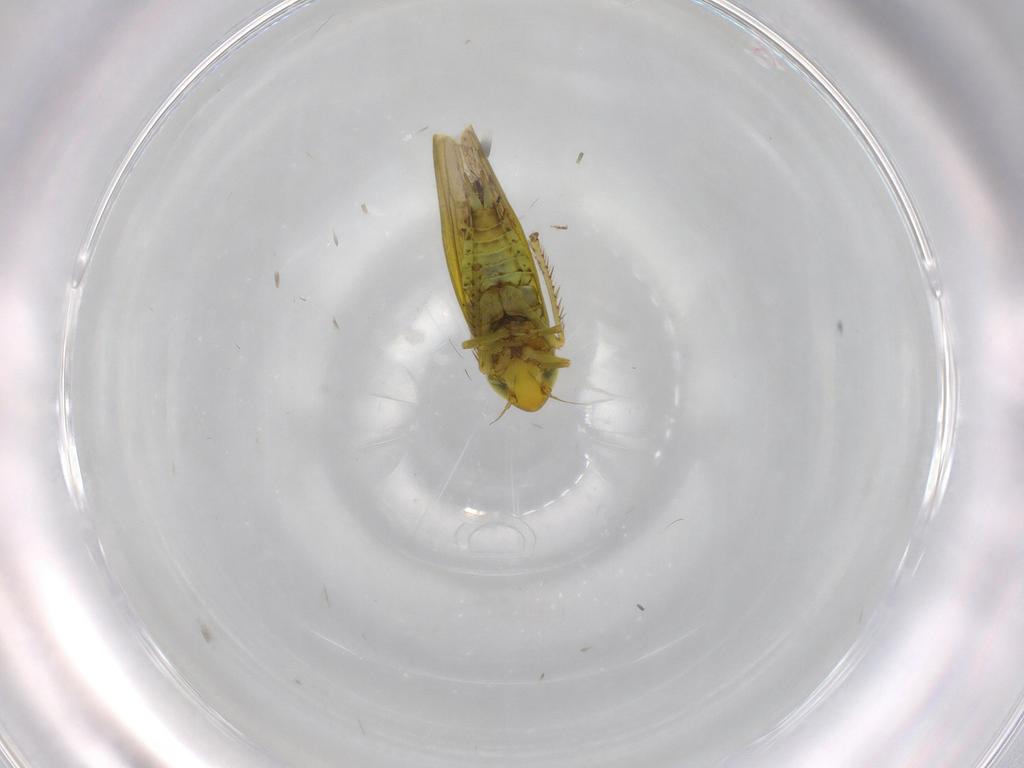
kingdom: Animalia
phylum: Arthropoda
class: Insecta
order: Hemiptera
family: Cicadellidae
